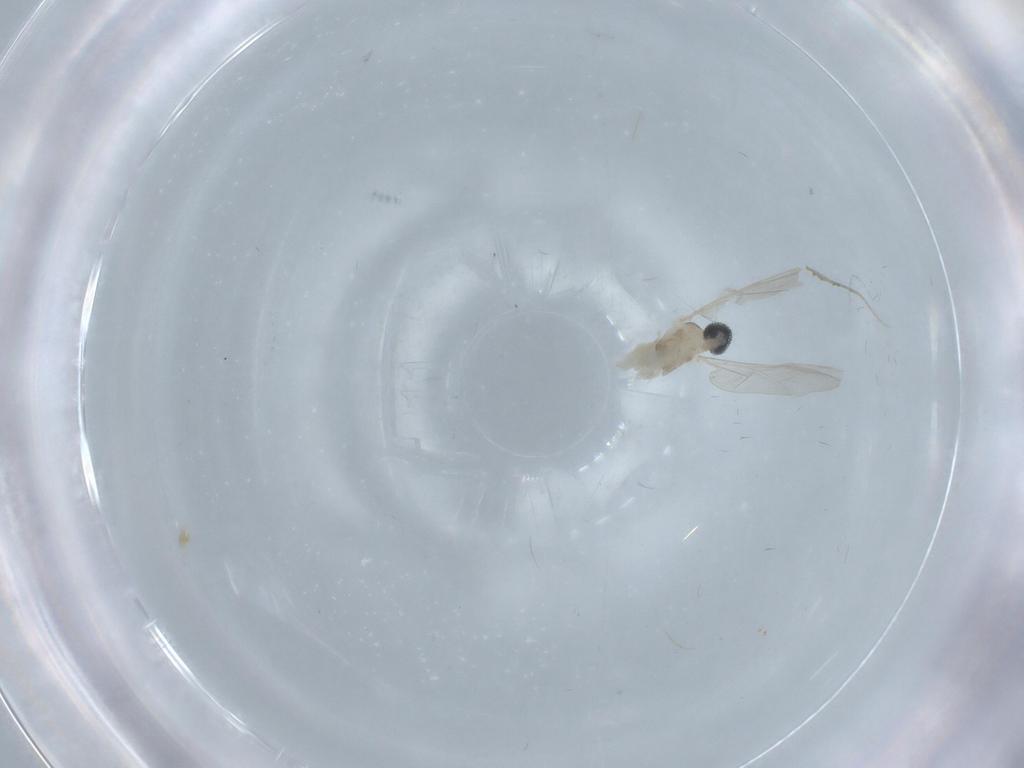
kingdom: Animalia
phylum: Arthropoda
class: Insecta
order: Diptera
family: Cecidomyiidae
